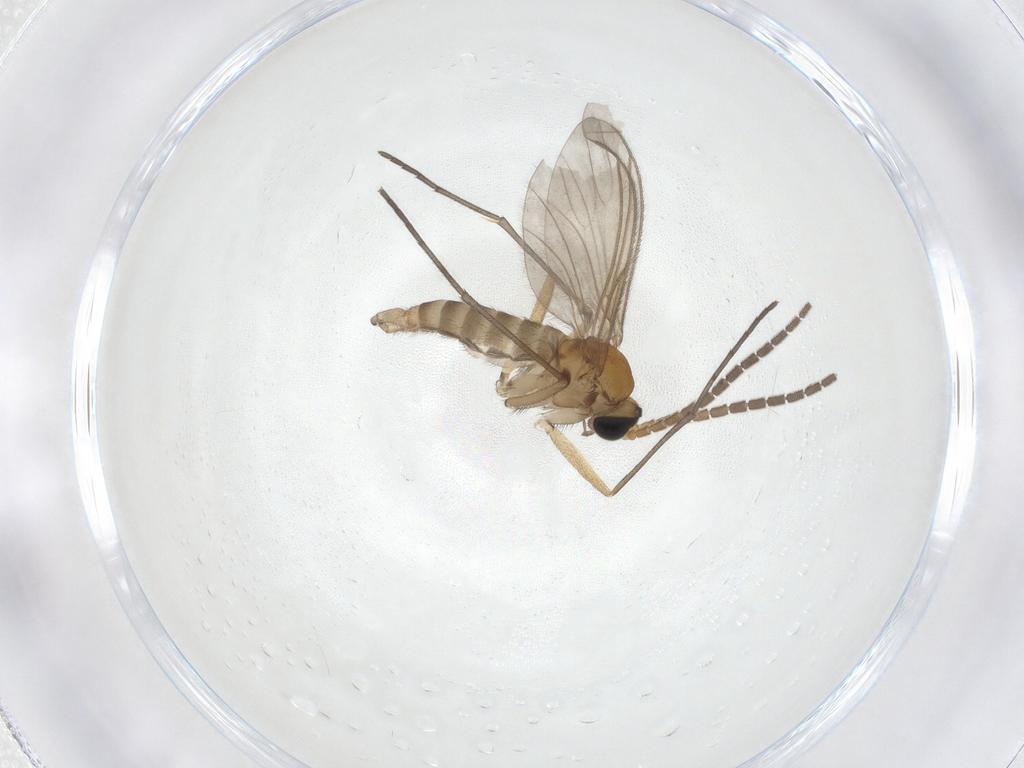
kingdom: Animalia
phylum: Arthropoda
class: Insecta
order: Diptera
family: Sciaridae
